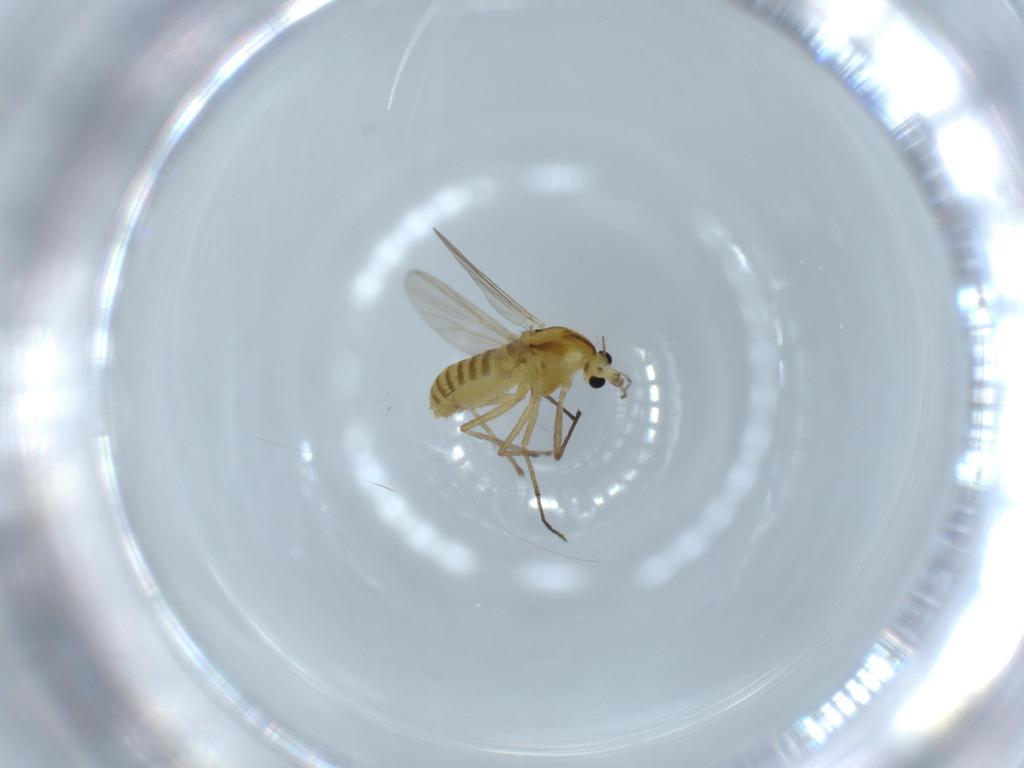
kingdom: Animalia
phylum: Arthropoda
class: Insecta
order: Diptera
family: Chironomidae
